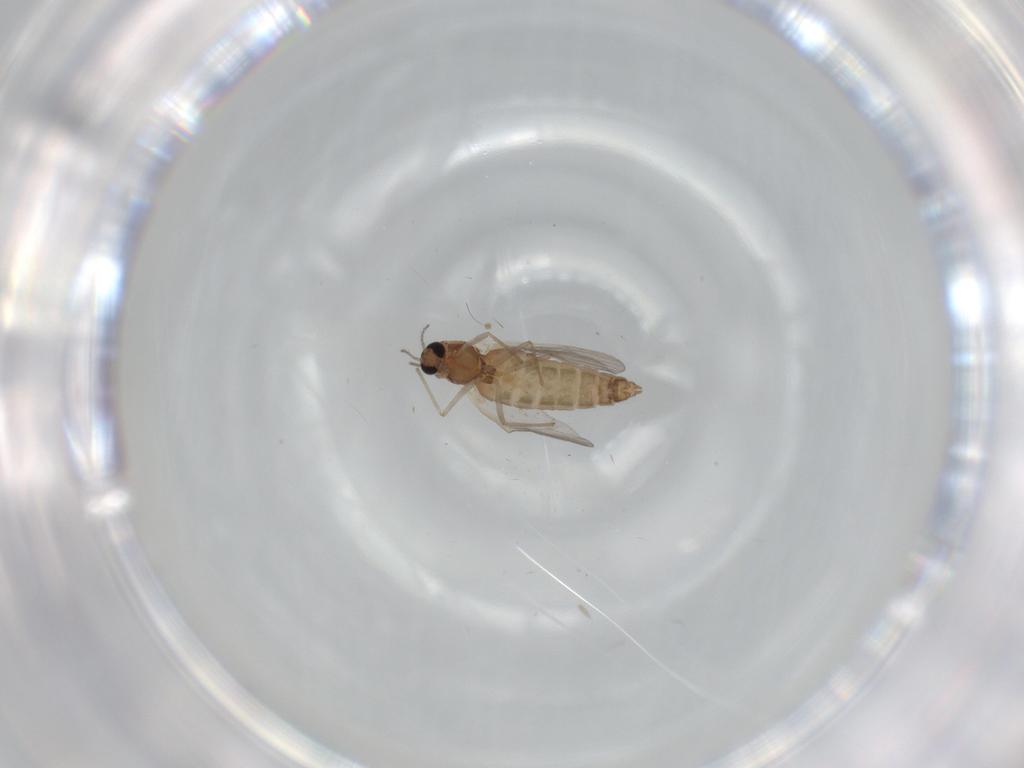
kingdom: Animalia
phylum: Arthropoda
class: Insecta
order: Diptera
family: Chironomidae
